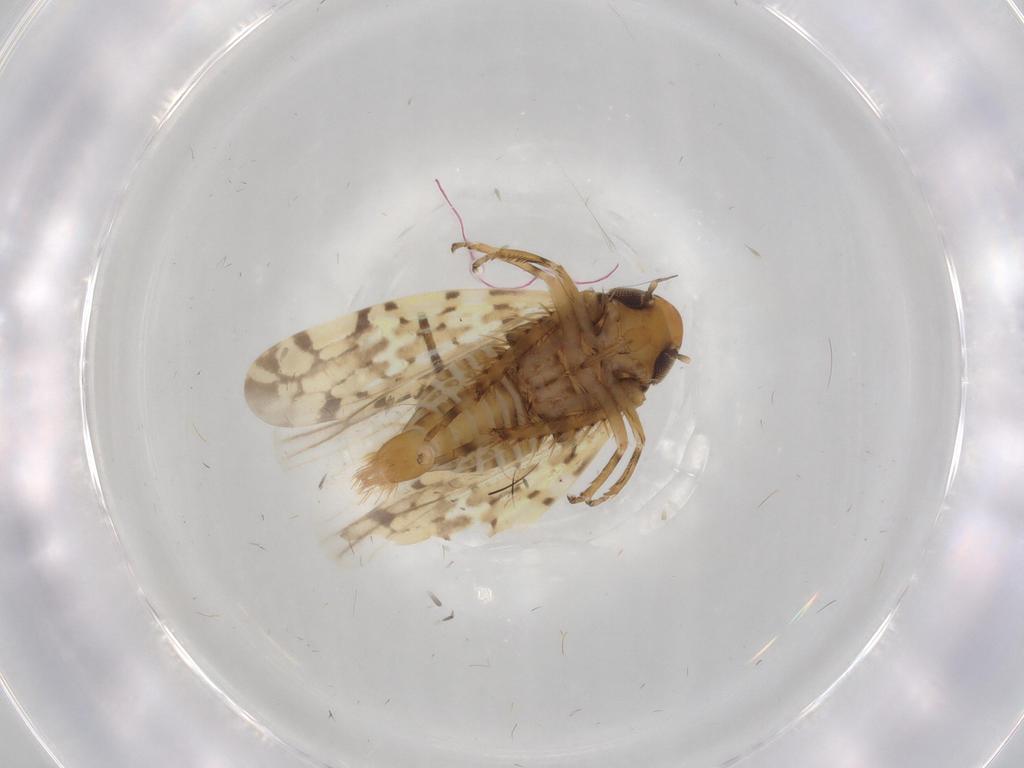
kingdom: Animalia
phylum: Arthropoda
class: Insecta
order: Hemiptera
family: Cicadellidae
